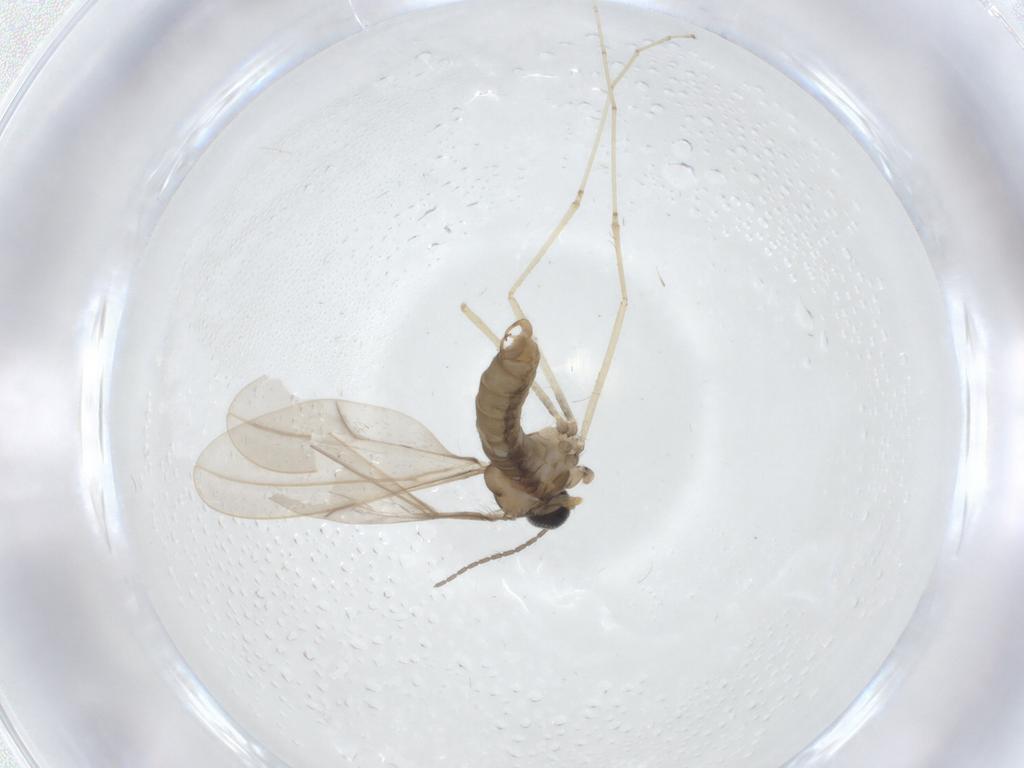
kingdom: Animalia
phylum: Arthropoda
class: Insecta
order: Diptera
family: Cecidomyiidae
